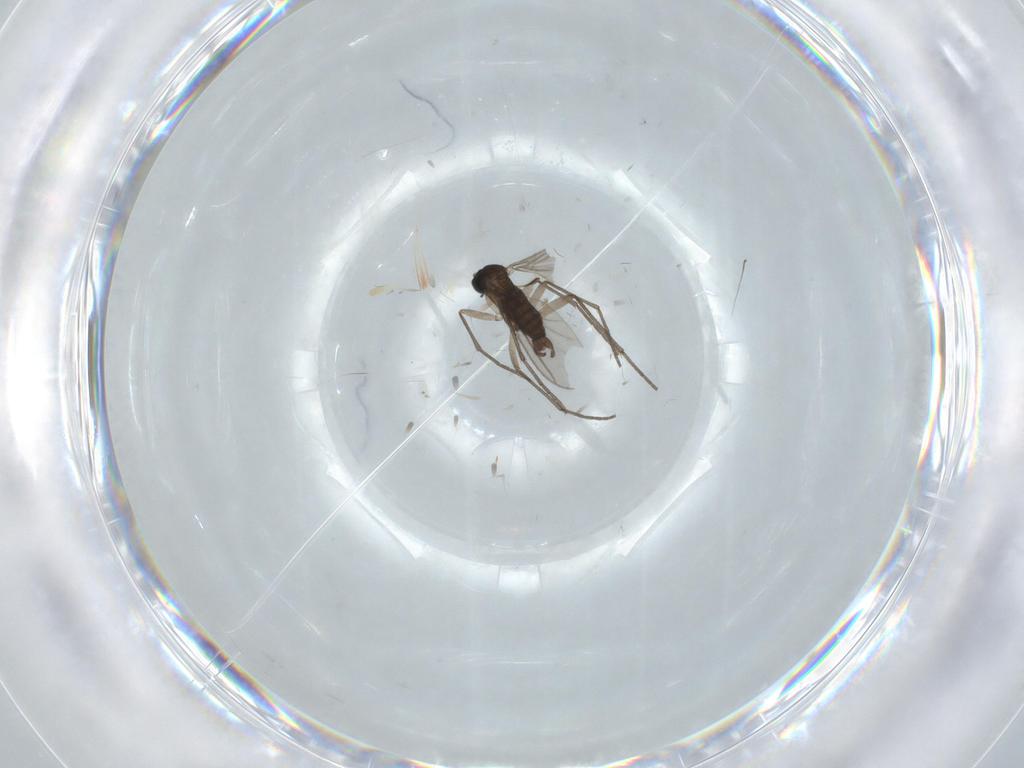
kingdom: Animalia
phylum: Arthropoda
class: Insecta
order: Diptera
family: Sciaridae
